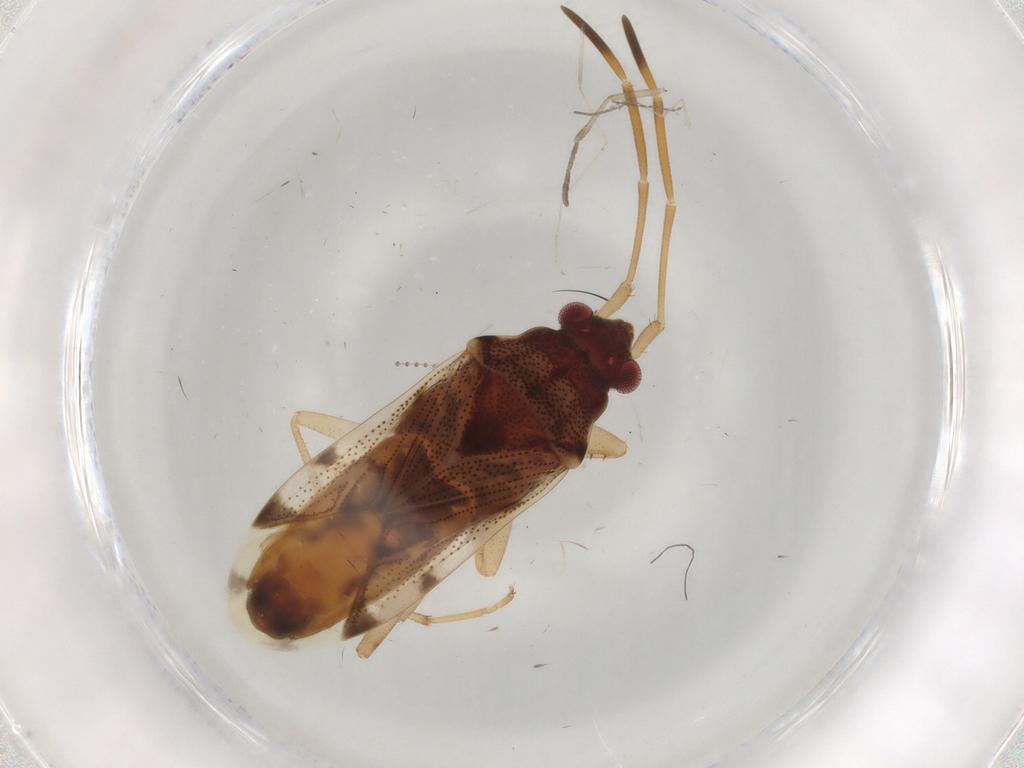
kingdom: Animalia
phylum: Arthropoda
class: Insecta
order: Hemiptera
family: Rhyparochromidae
